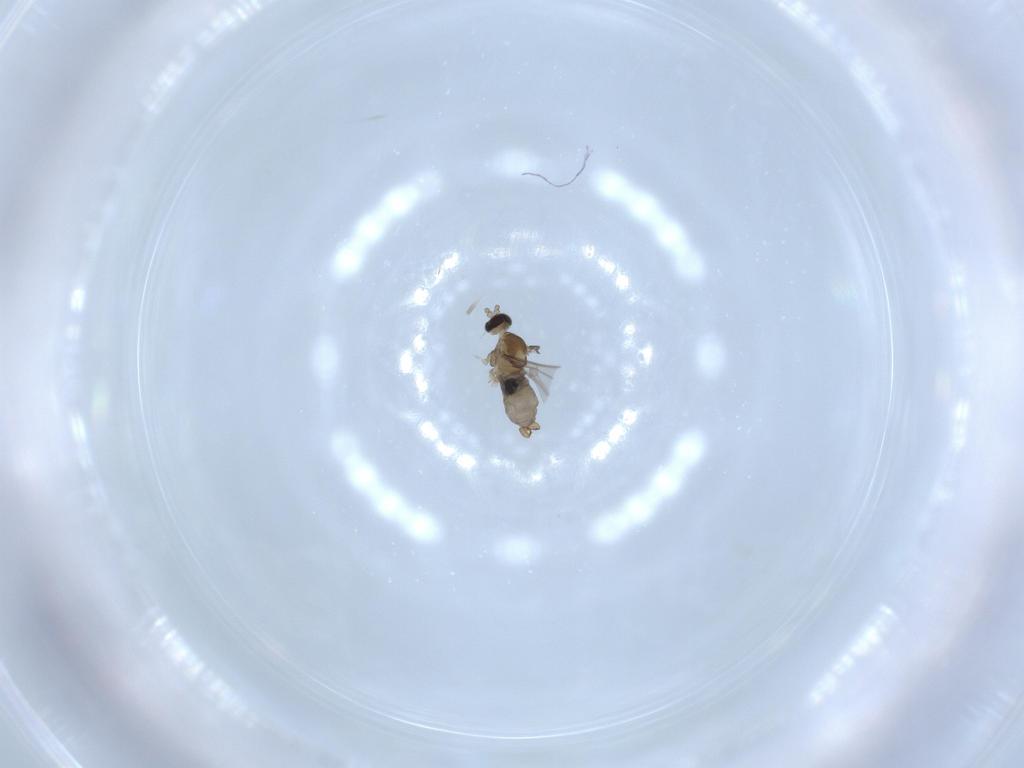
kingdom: Animalia
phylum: Arthropoda
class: Insecta
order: Diptera
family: Cecidomyiidae
